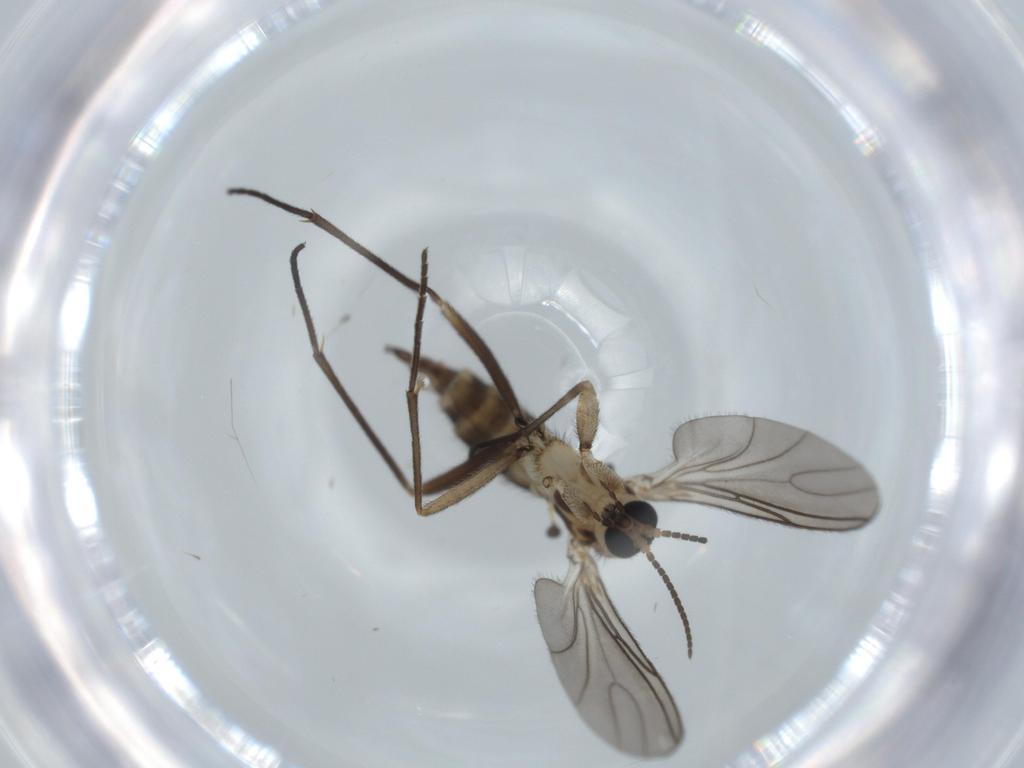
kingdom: Animalia
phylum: Arthropoda
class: Insecta
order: Diptera
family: Sciaridae
